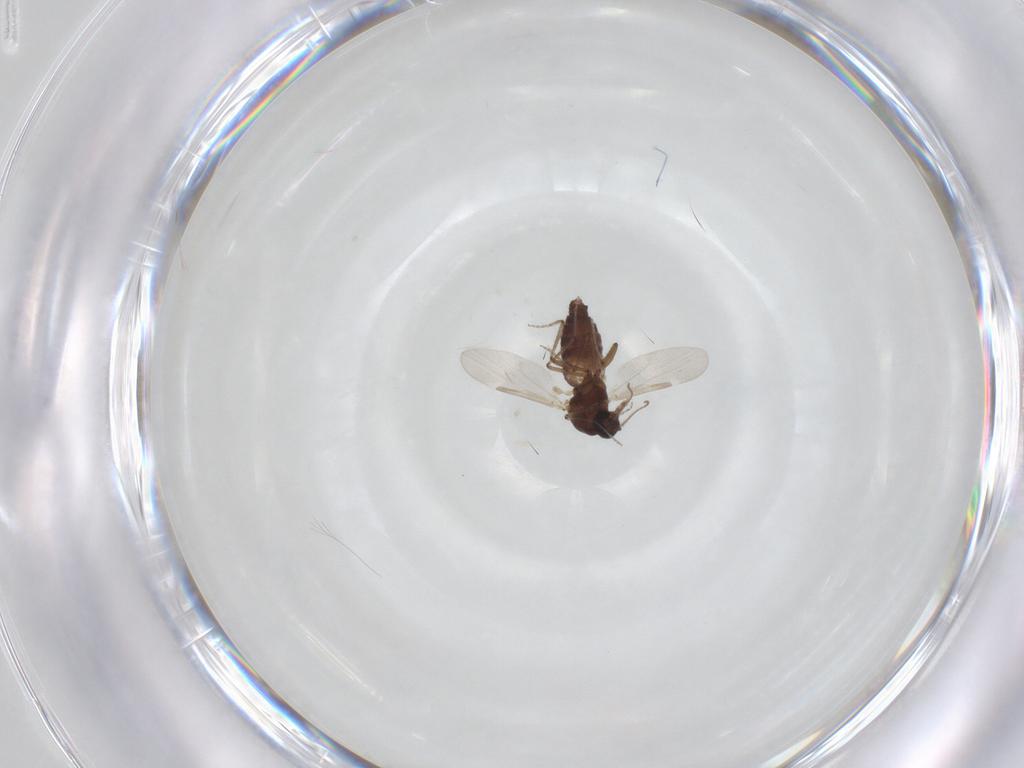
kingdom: Animalia
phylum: Arthropoda
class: Insecta
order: Diptera
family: Ceratopogonidae
